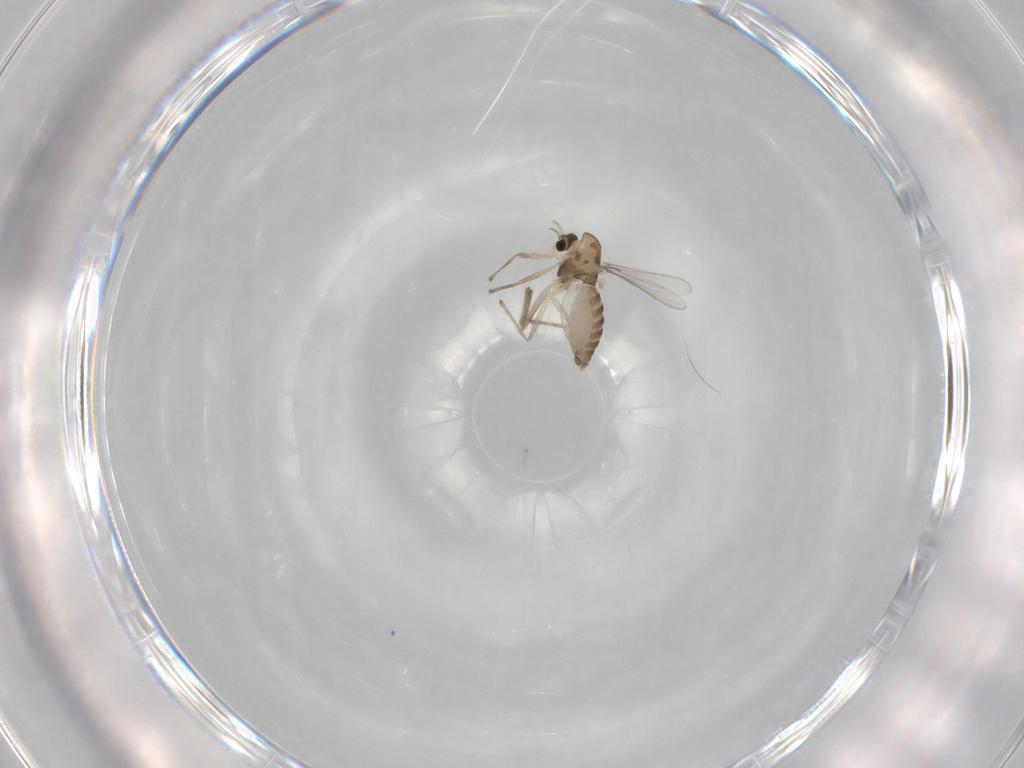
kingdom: Animalia
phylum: Arthropoda
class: Insecta
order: Diptera
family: Chironomidae
